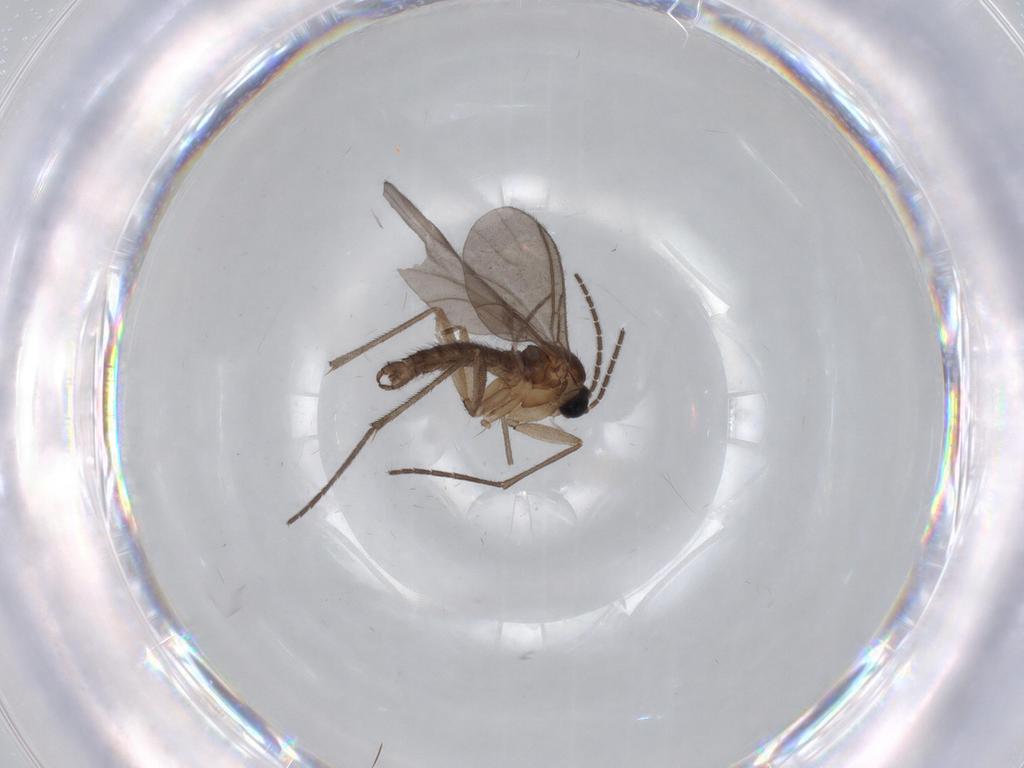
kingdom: Animalia
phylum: Arthropoda
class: Insecta
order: Diptera
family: Sciaridae
